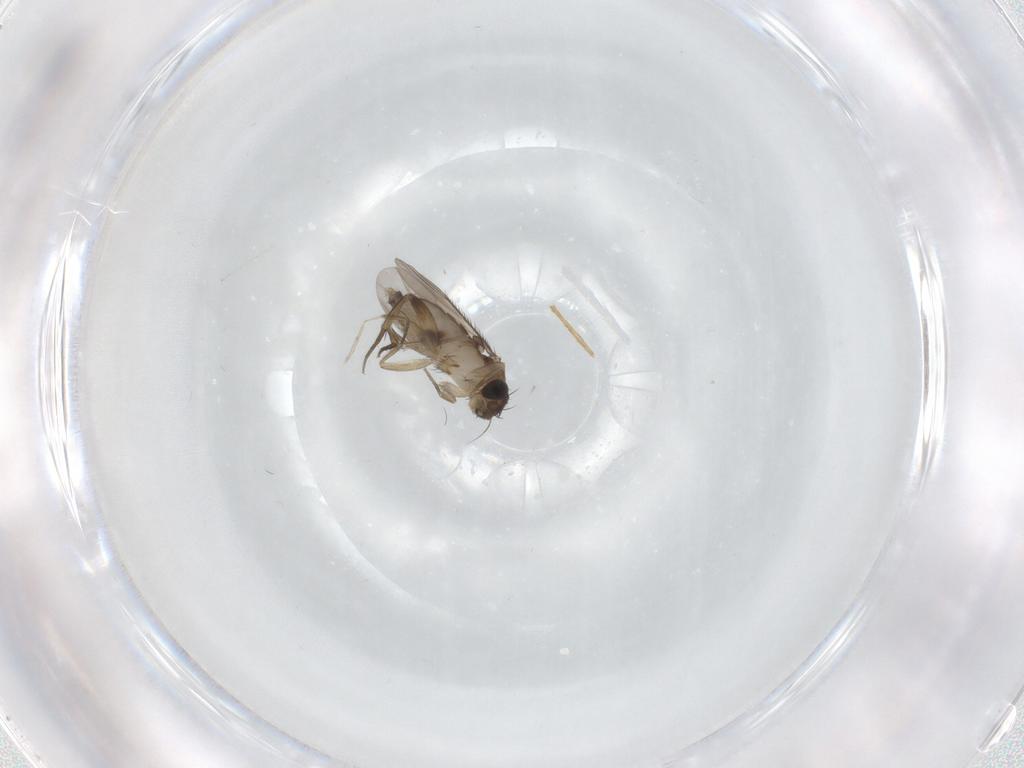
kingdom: Animalia
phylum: Arthropoda
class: Insecta
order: Diptera
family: Phoridae
